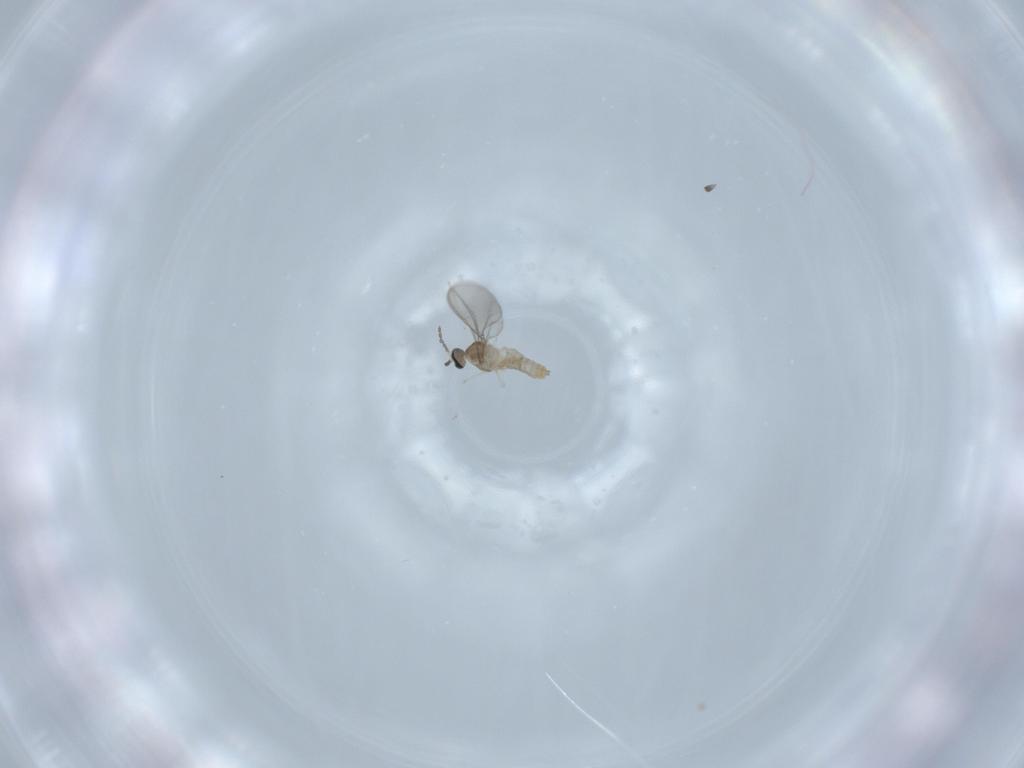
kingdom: Animalia
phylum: Arthropoda
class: Insecta
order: Diptera
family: Cecidomyiidae
